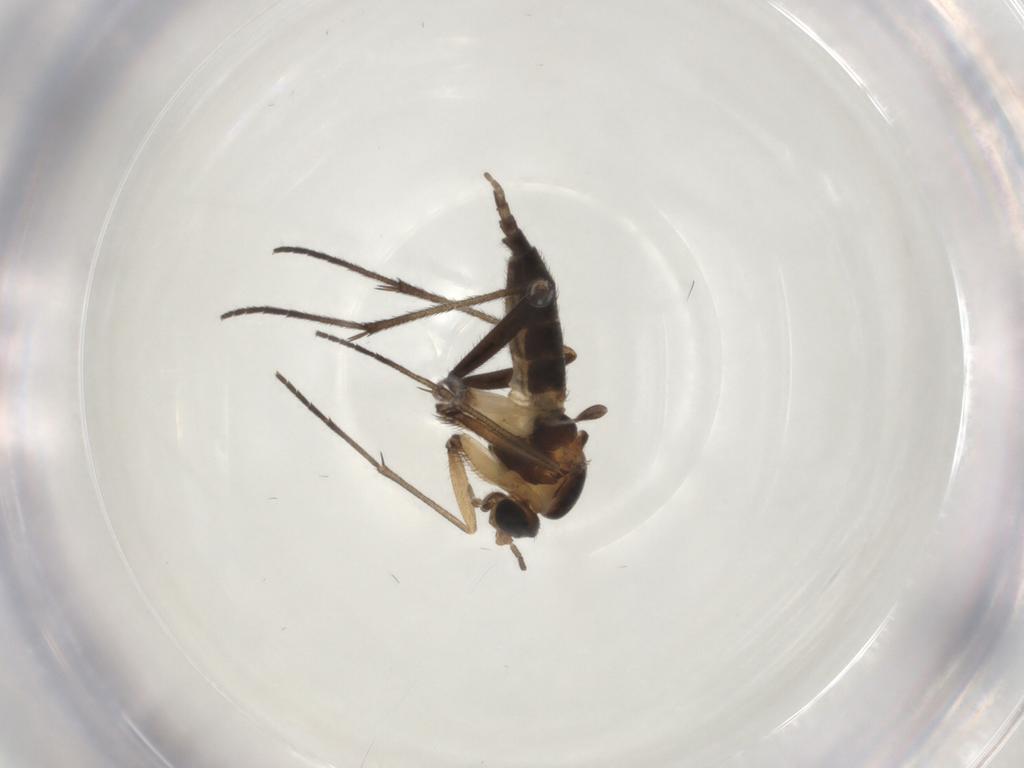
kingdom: Animalia
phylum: Arthropoda
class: Insecta
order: Diptera
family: Sciaridae
